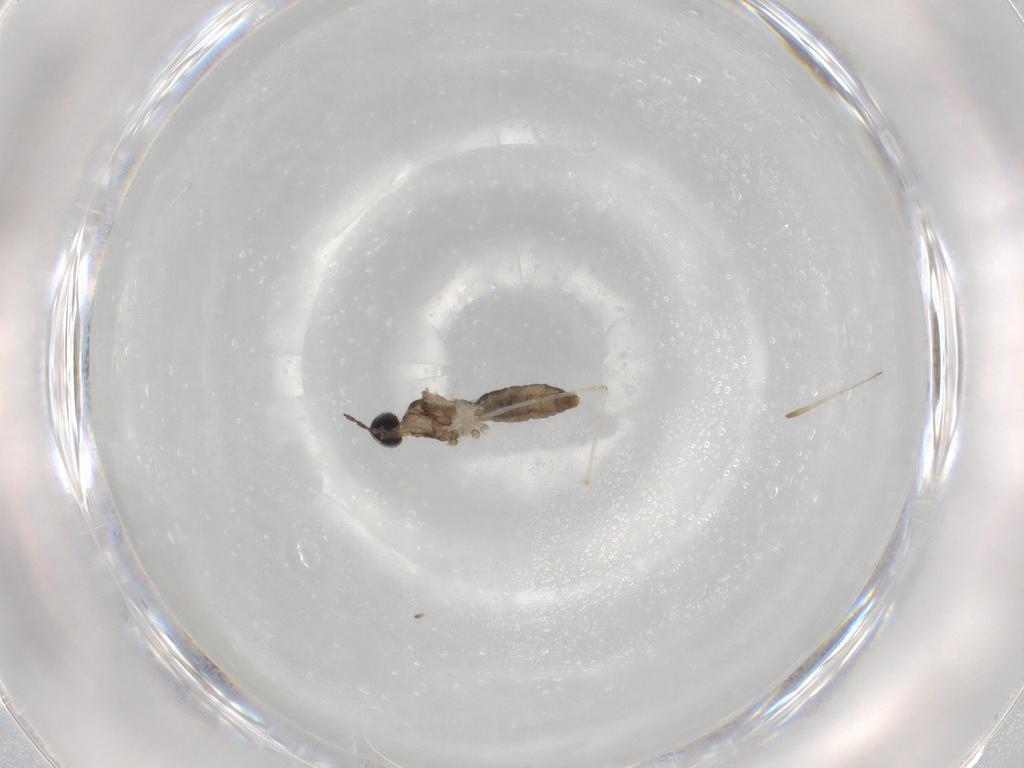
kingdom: Animalia
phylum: Arthropoda
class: Insecta
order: Diptera
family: Cecidomyiidae
